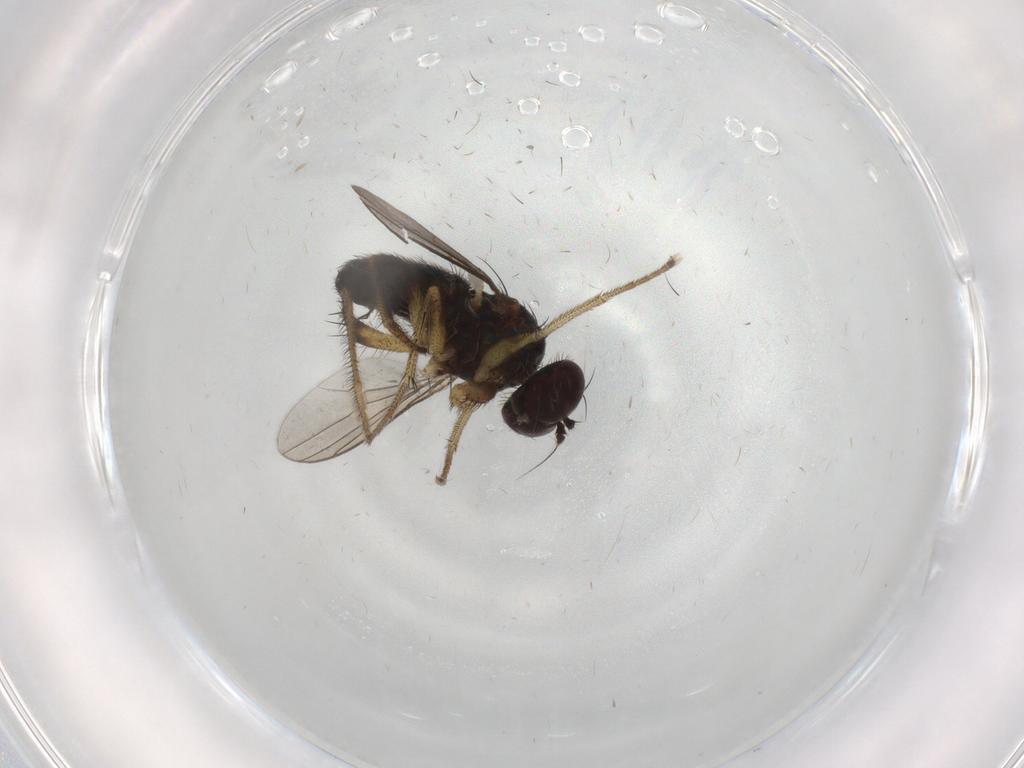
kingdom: Animalia
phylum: Arthropoda
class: Insecta
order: Diptera
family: Dolichopodidae
